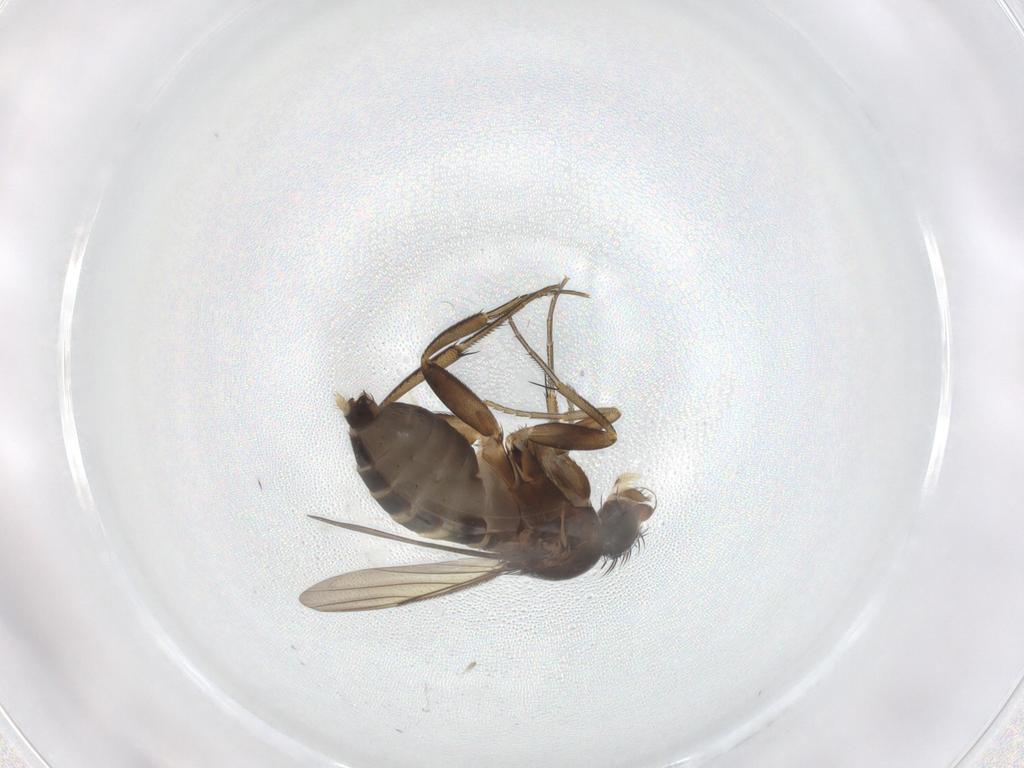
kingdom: Animalia
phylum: Arthropoda
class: Insecta
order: Diptera
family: Phoridae
